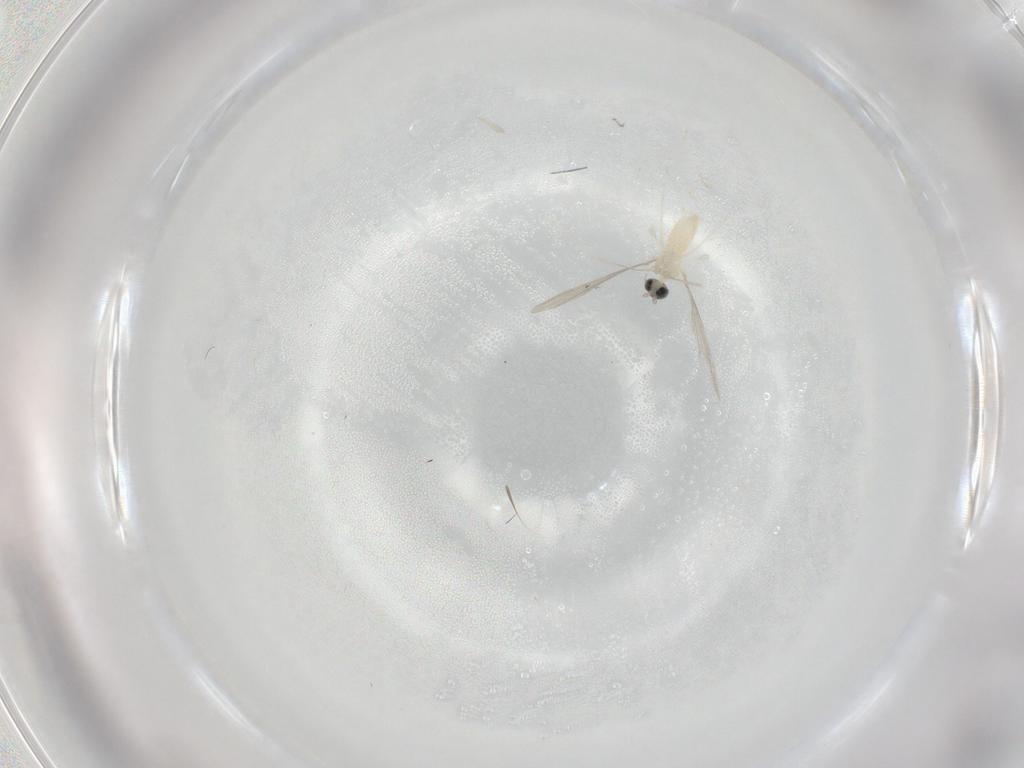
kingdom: Animalia
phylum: Arthropoda
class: Insecta
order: Diptera
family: Cecidomyiidae
